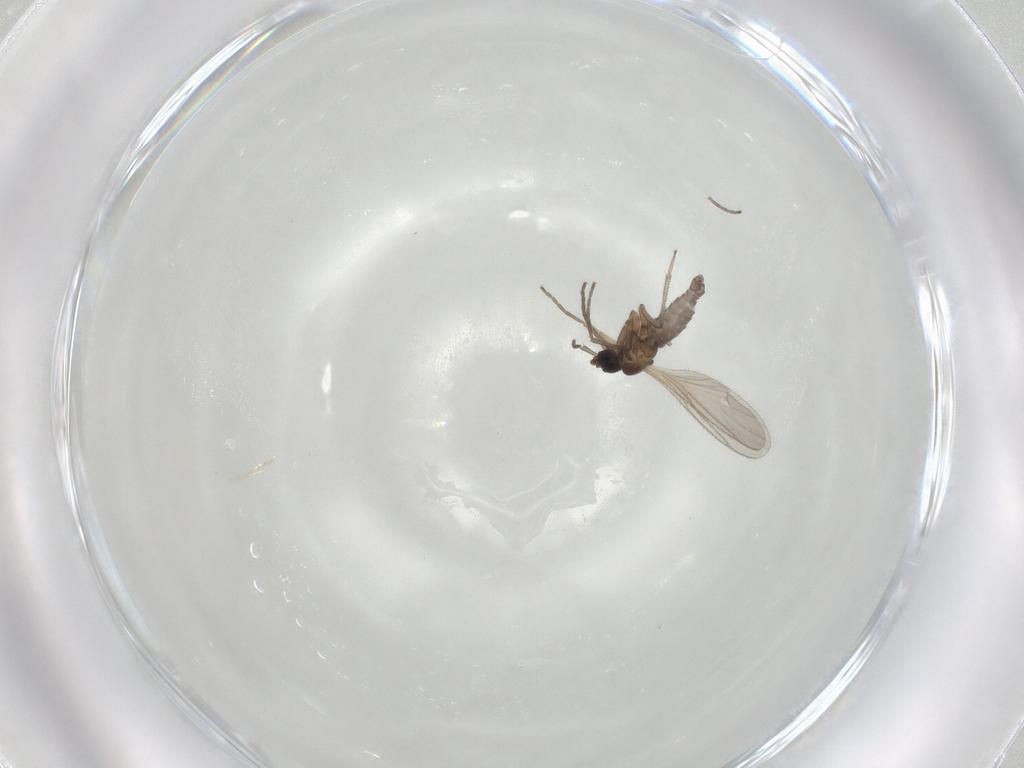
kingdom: Animalia
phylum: Arthropoda
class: Insecta
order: Diptera
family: Sciaridae
